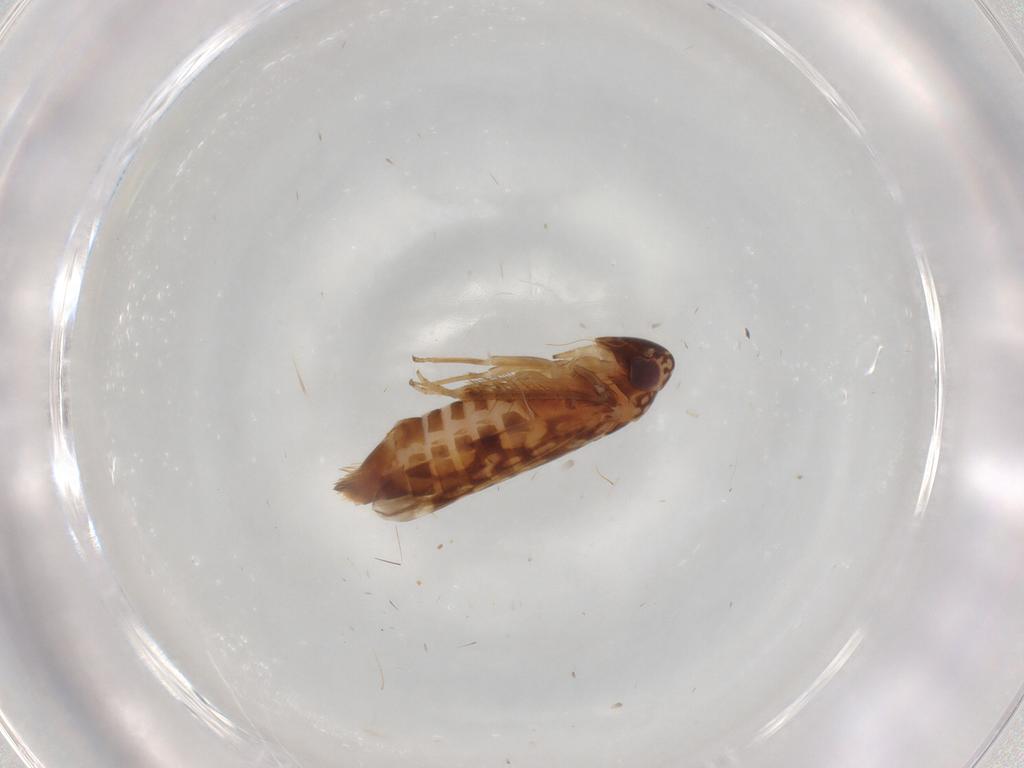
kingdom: Animalia
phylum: Arthropoda
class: Insecta
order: Hemiptera
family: Cicadellidae
